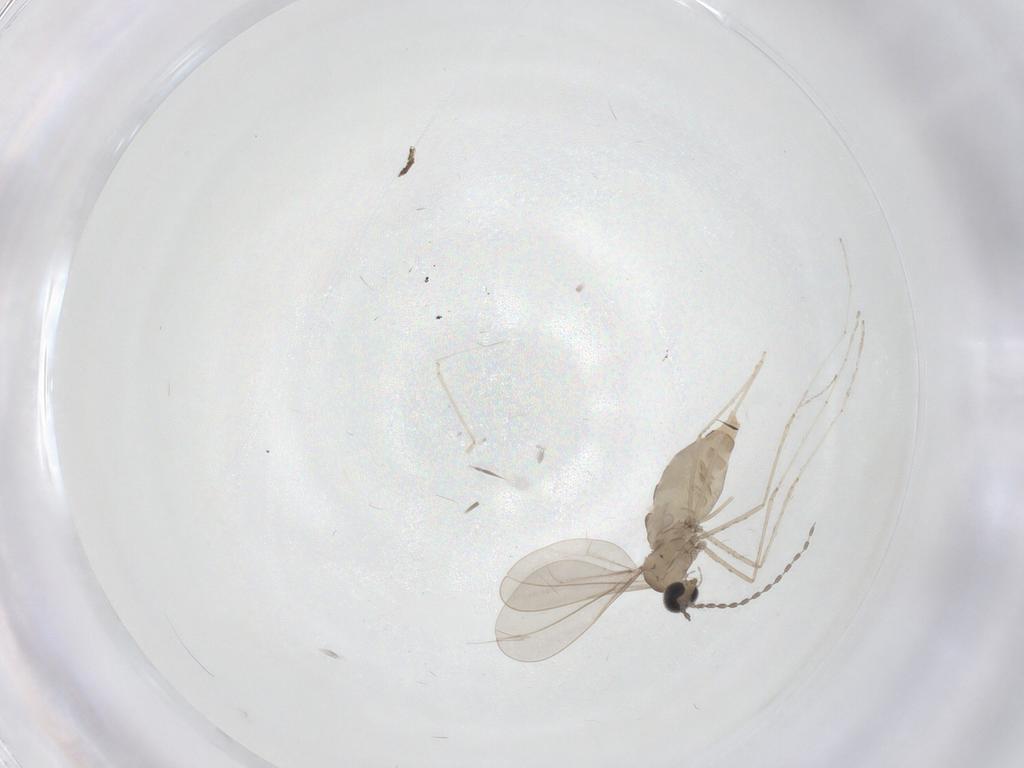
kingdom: Animalia
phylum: Arthropoda
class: Insecta
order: Diptera
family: Cecidomyiidae
